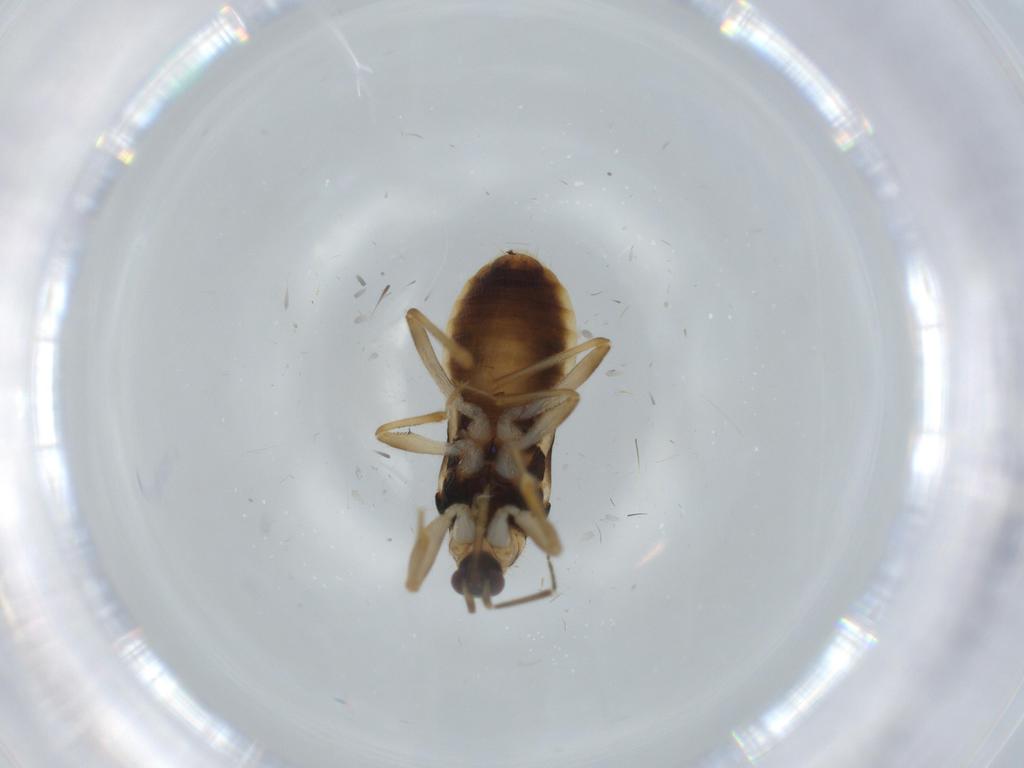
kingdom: Animalia
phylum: Arthropoda
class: Insecta
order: Hemiptera
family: Nabidae
